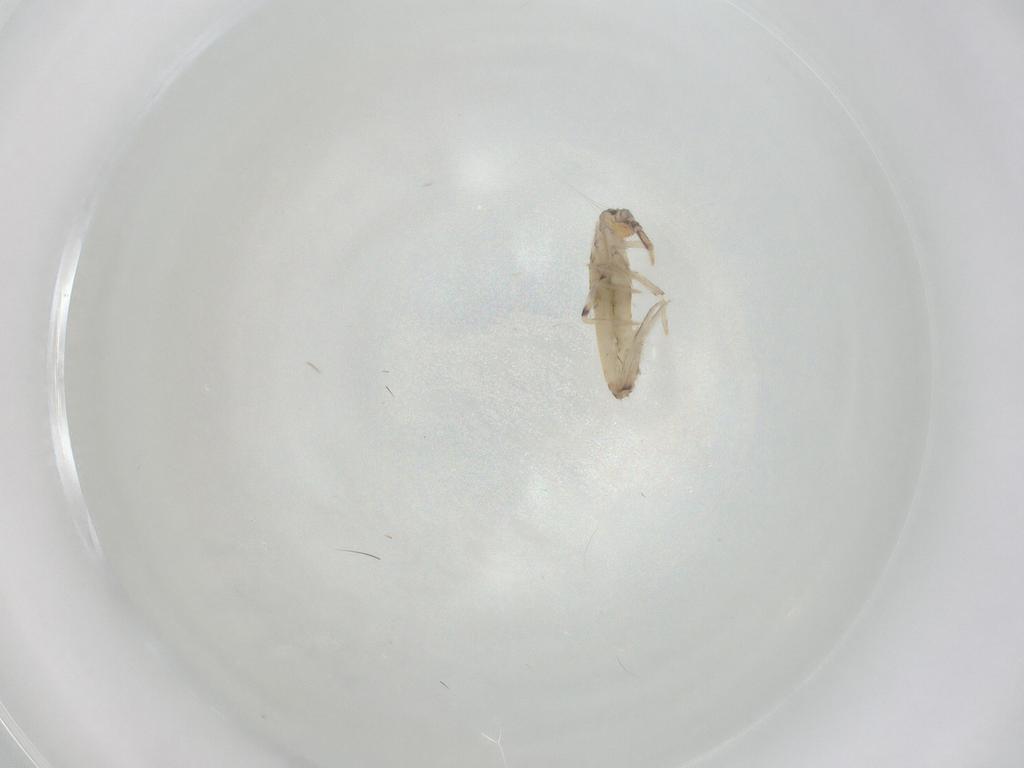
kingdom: Animalia
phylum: Arthropoda
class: Collembola
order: Entomobryomorpha
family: Entomobryidae
